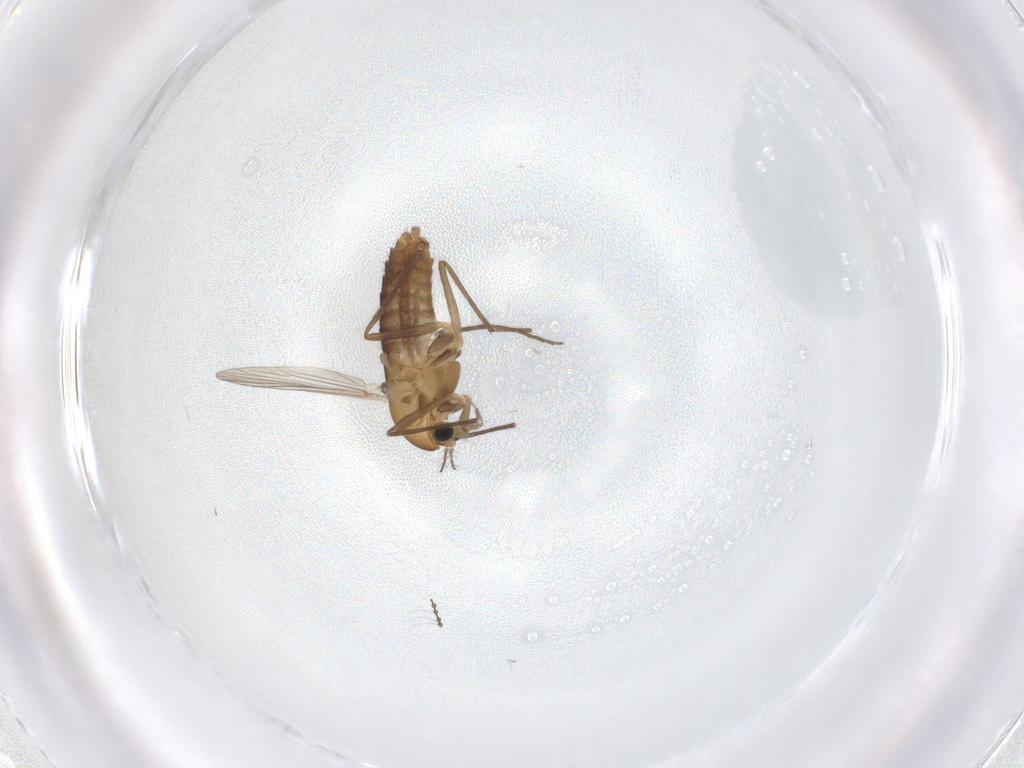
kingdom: Animalia
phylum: Arthropoda
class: Insecta
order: Diptera
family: Chironomidae
